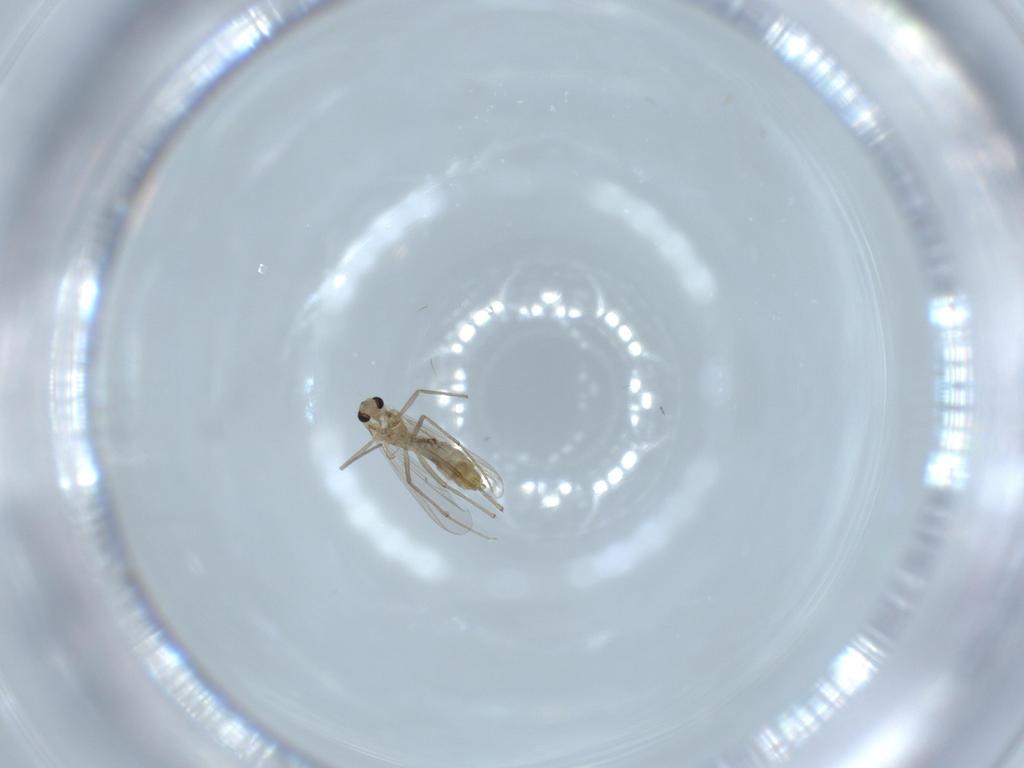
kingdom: Animalia
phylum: Arthropoda
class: Insecta
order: Diptera
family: Chironomidae
